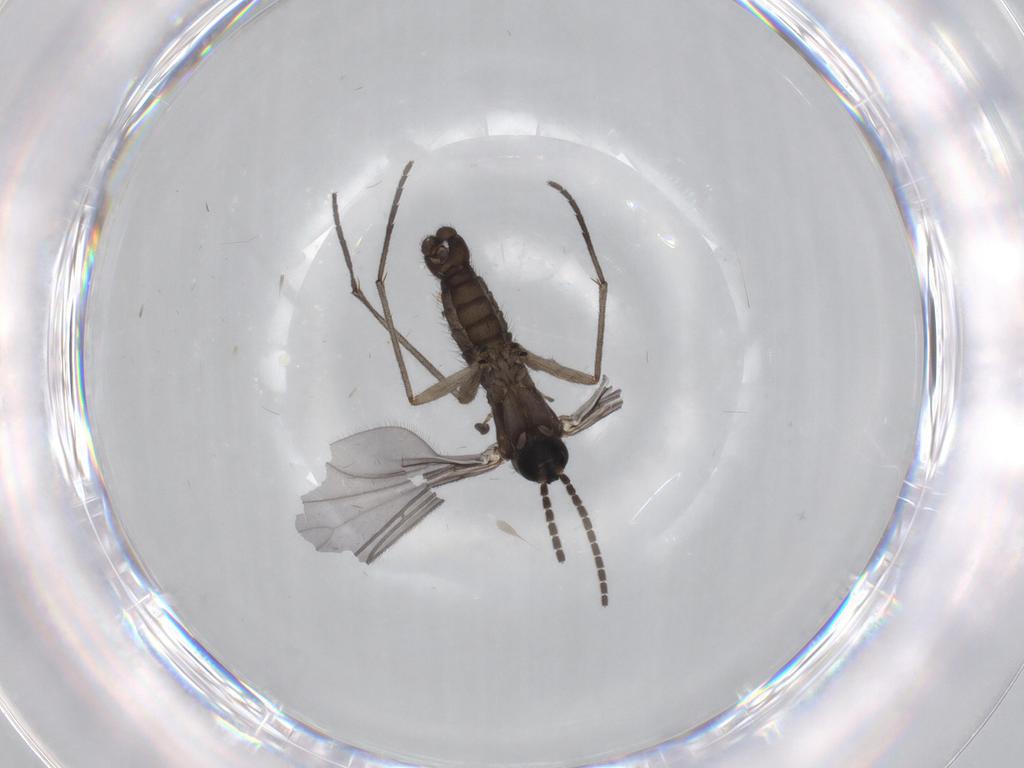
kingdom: Animalia
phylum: Arthropoda
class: Insecta
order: Diptera
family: Sciaridae
